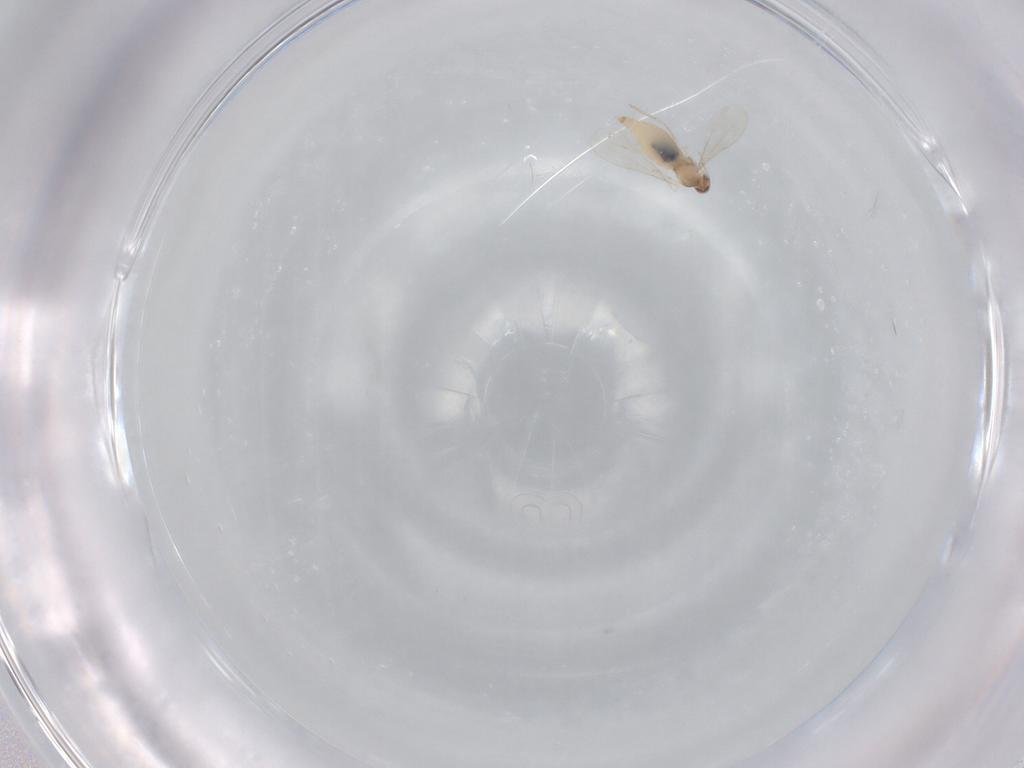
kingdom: Animalia
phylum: Arthropoda
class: Insecta
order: Diptera
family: Cecidomyiidae
